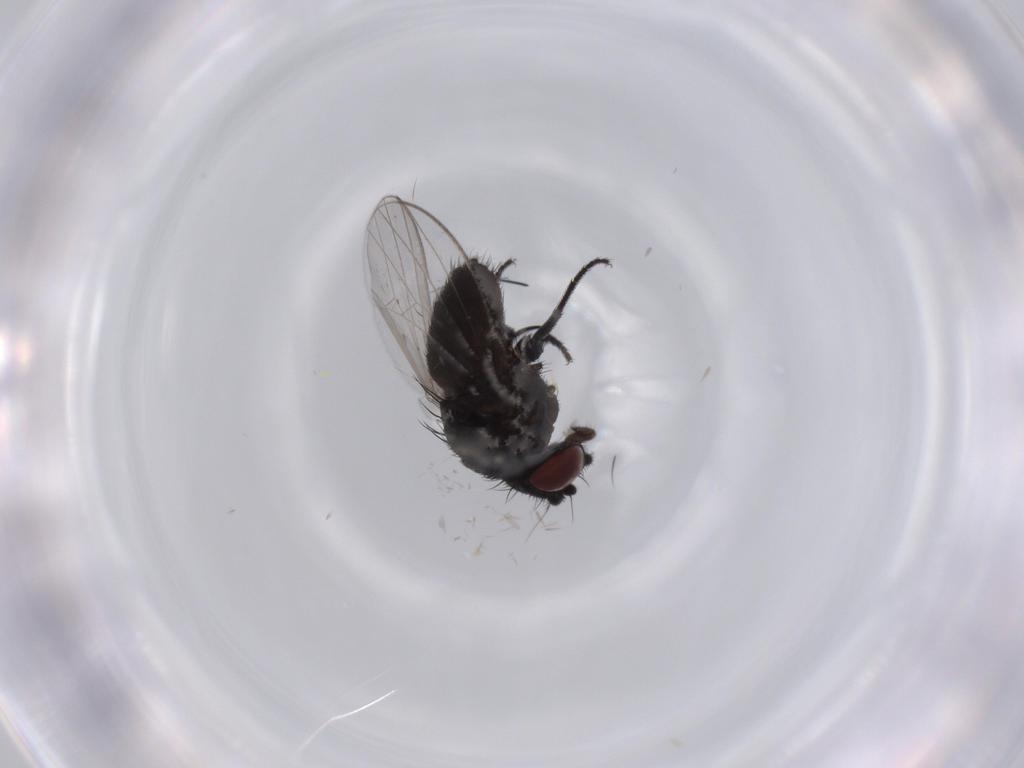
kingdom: Animalia
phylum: Arthropoda
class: Insecta
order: Diptera
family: Milichiidae
